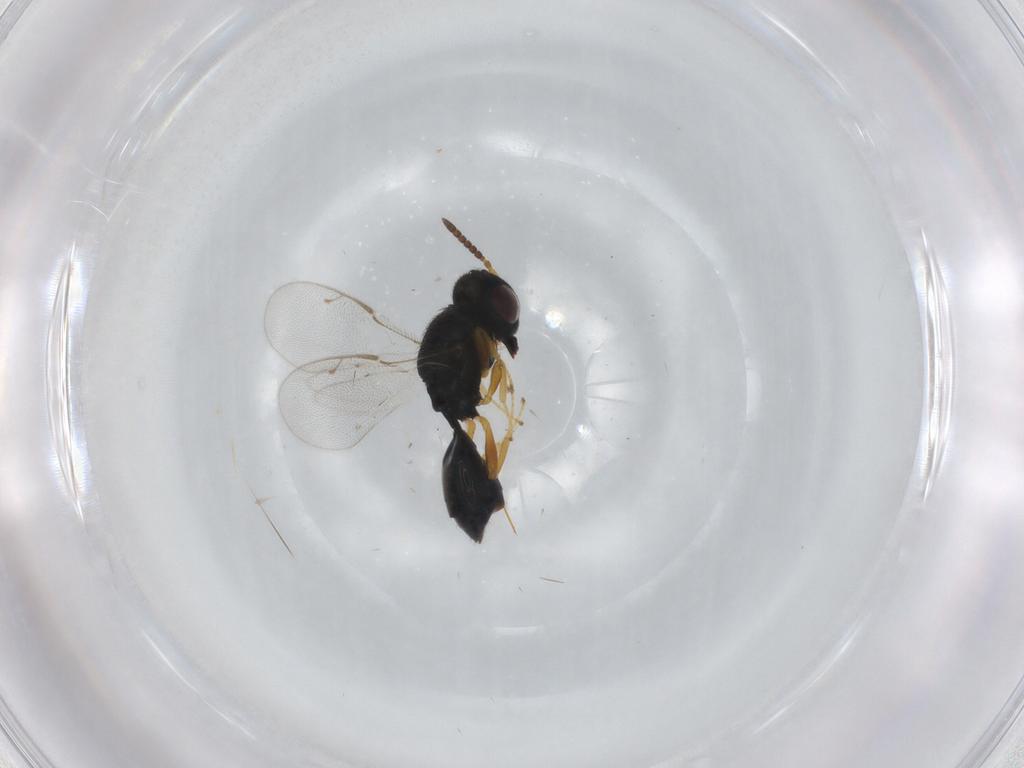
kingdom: Animalia
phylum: Arthropoda
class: Insecta
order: Hymenoptera
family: Pteromalidae
